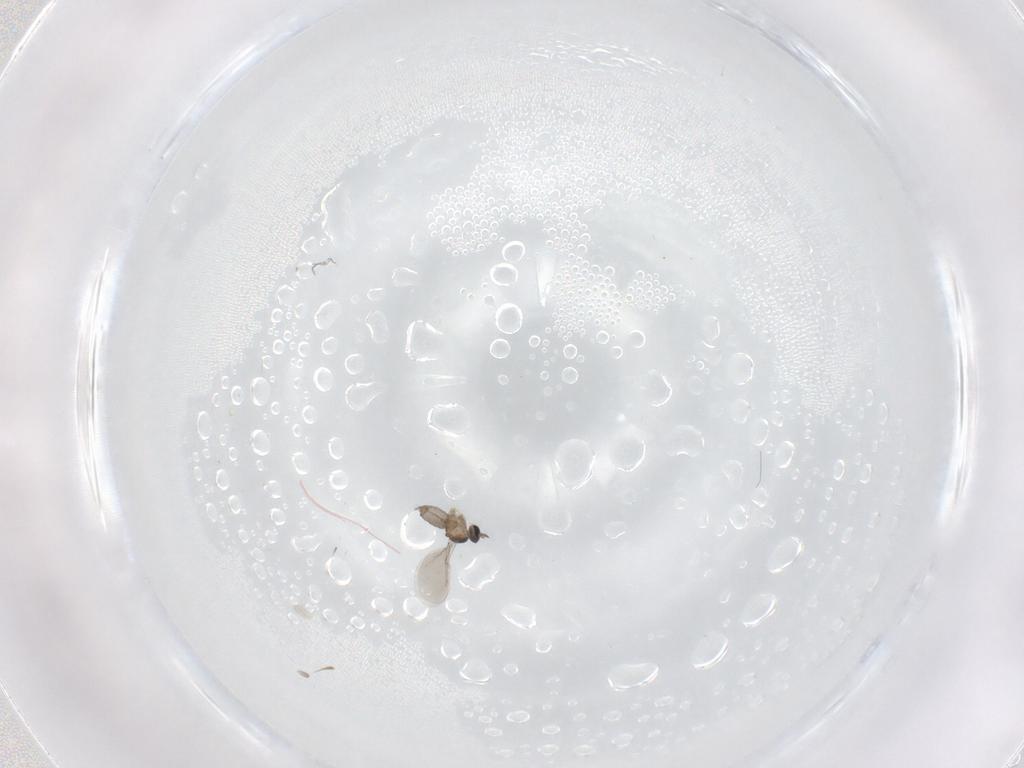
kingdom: Animalia
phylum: Arthropoda
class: Insecta
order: Diptera
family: Cecidomyiidae
